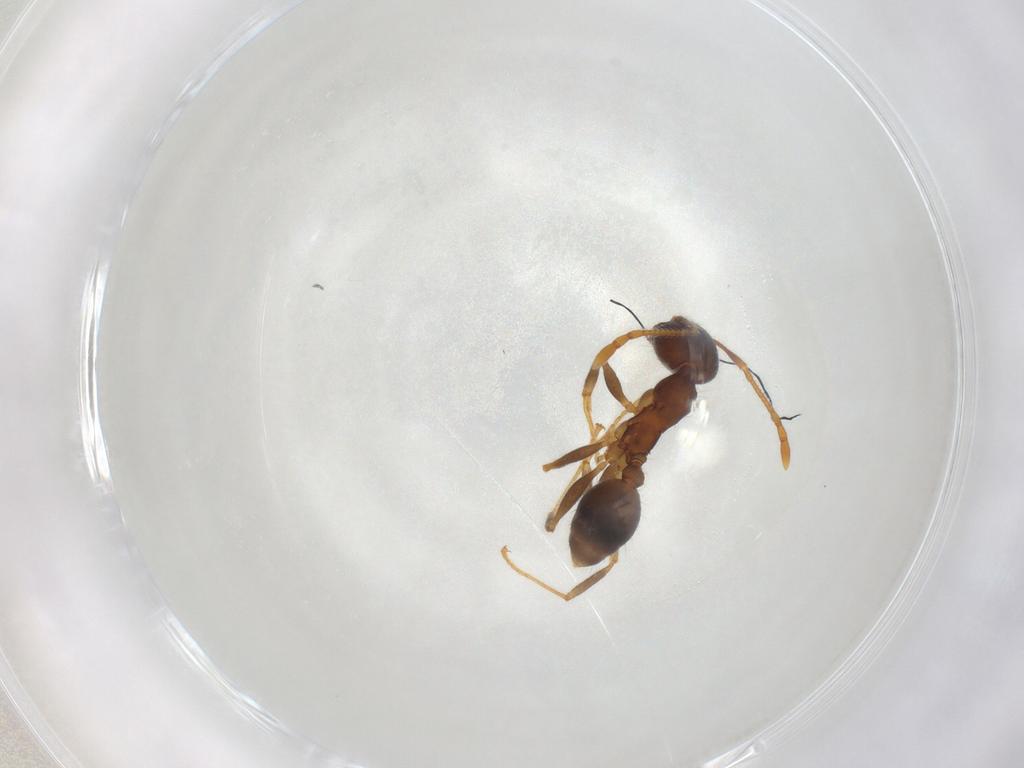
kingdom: Animalia
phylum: Arthropoda
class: Insecta
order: Hymenoptera
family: Formicidae
